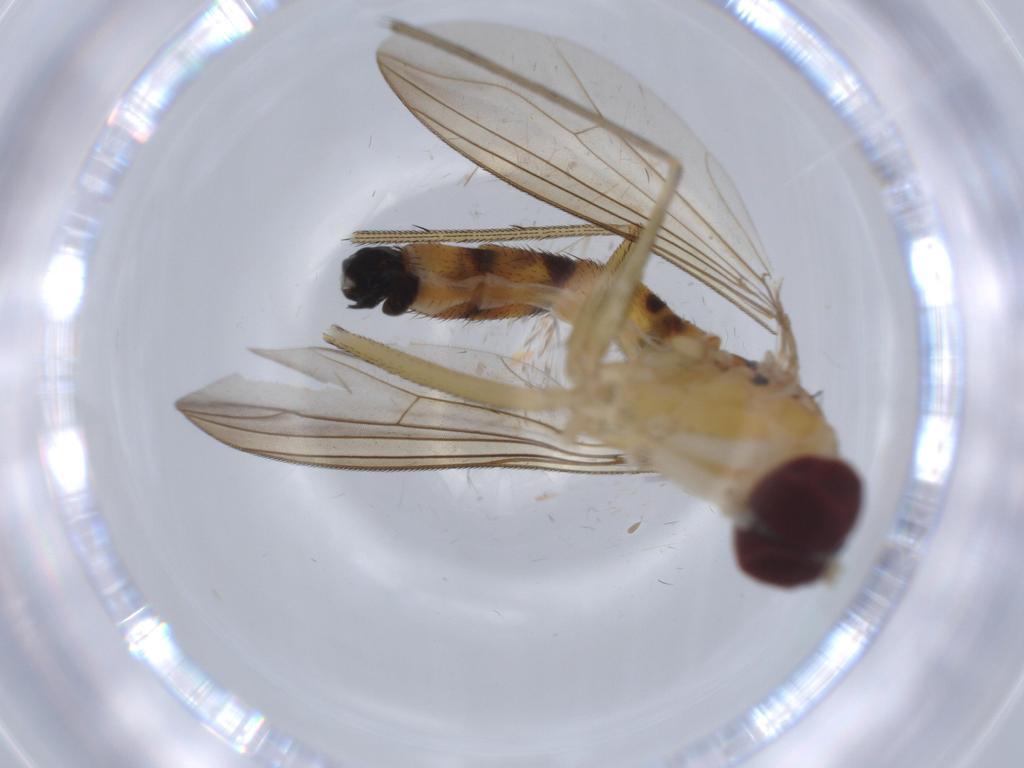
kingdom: Animalia
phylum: Arthropoda
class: Insecta
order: Diptera
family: Dolichopodidae
